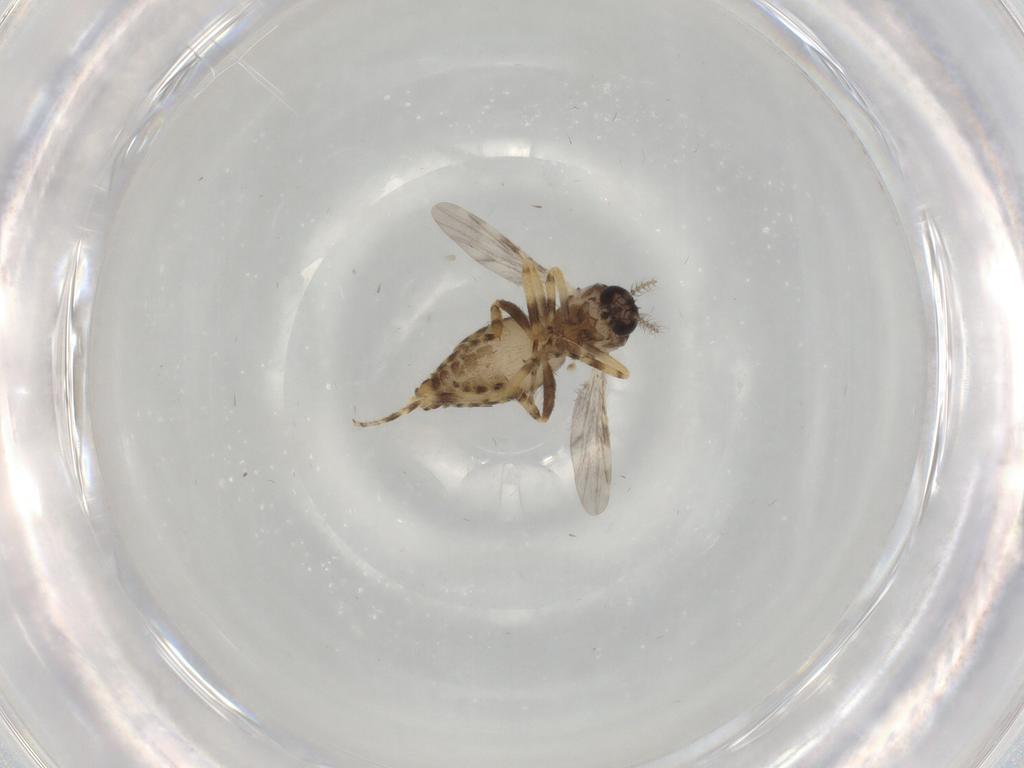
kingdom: Animalia
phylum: Arthropoda
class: Insecta
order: Diptera
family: Ceratopogonidae
